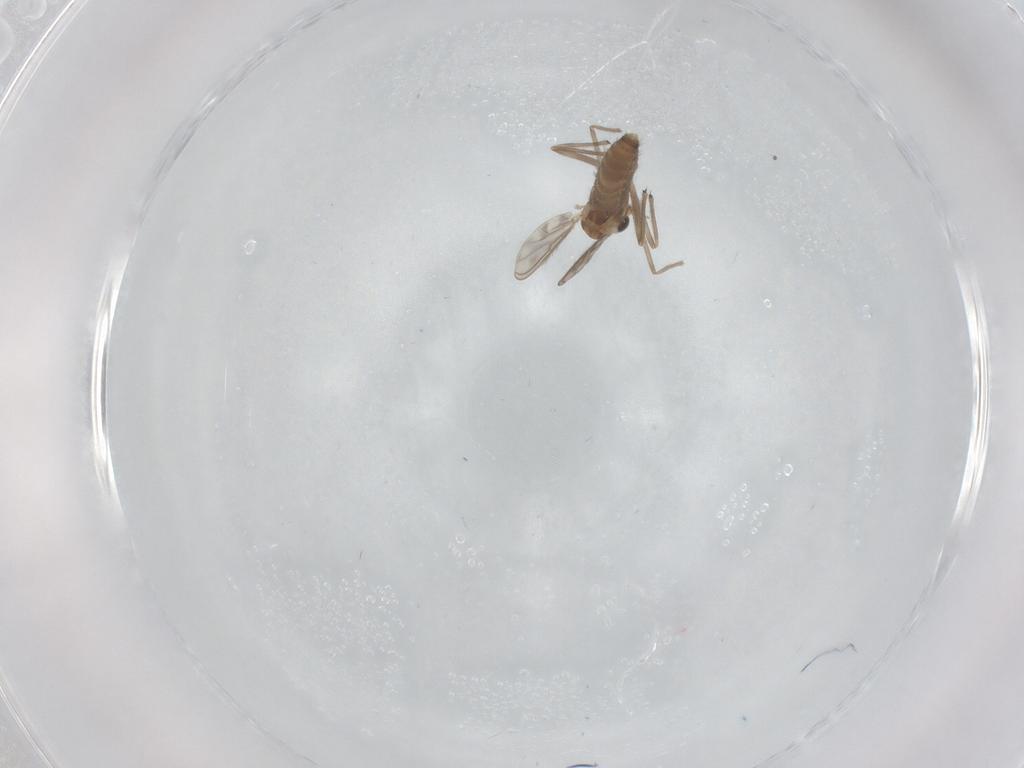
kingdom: Animalia
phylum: Arthropoda
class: Insecta
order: Diptera
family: Chironomidae
